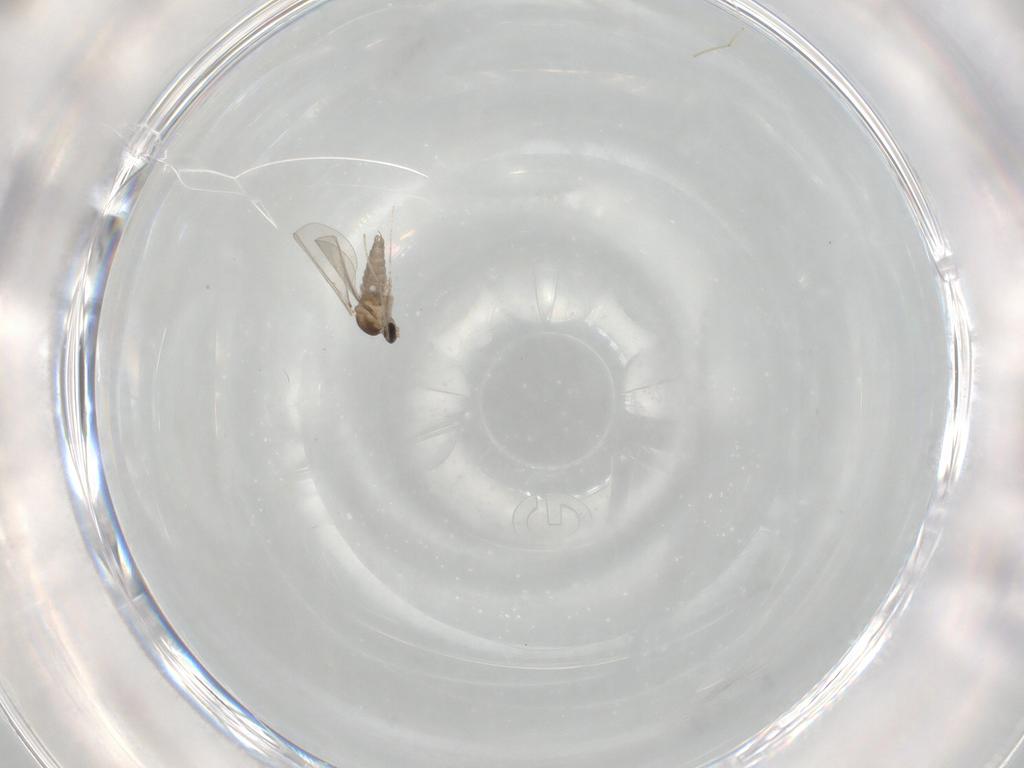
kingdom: Animalia
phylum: Arthropoda
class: Insecta
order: Diptera
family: Cecidomyiidae
